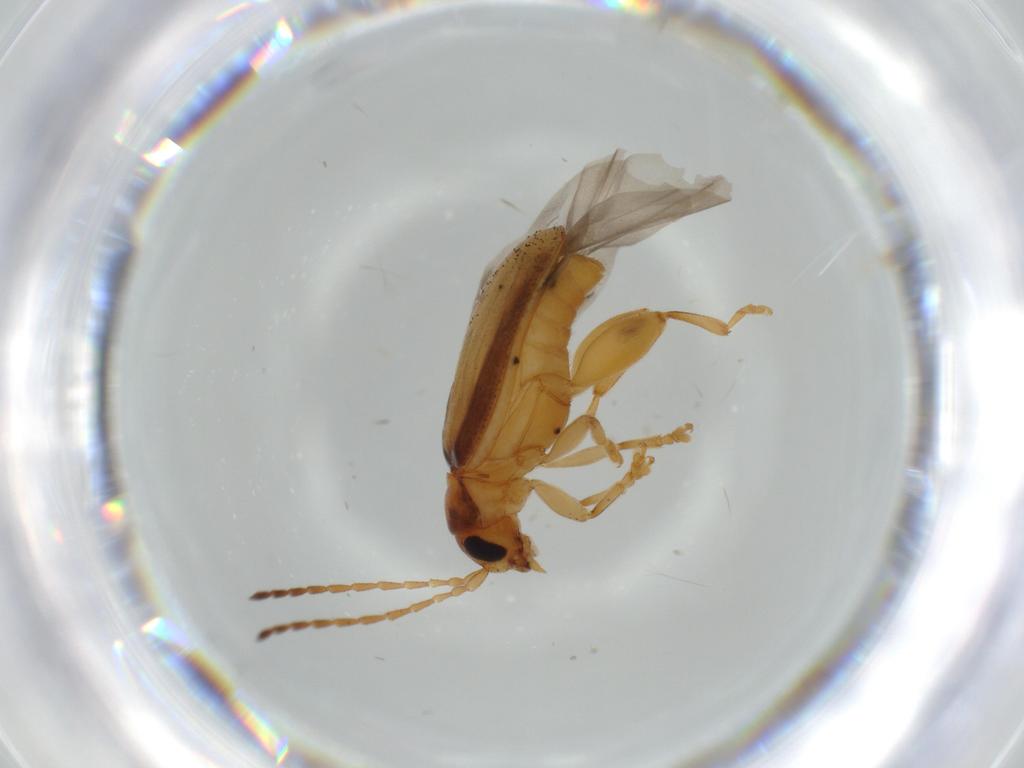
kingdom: Animalia
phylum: Arthropoda
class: Insecta
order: Coleoptera
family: Chrysomelidae
